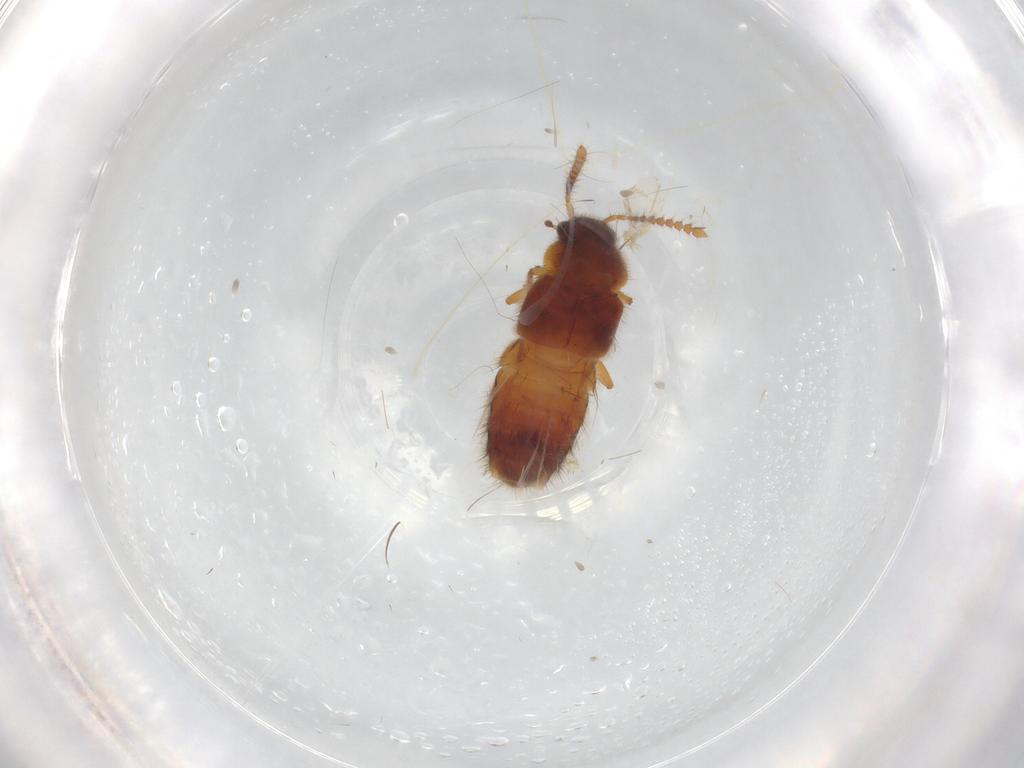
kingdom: Animalia
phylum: Arthropoda
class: Insecta
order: Coleoptera
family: Staphylinidae
